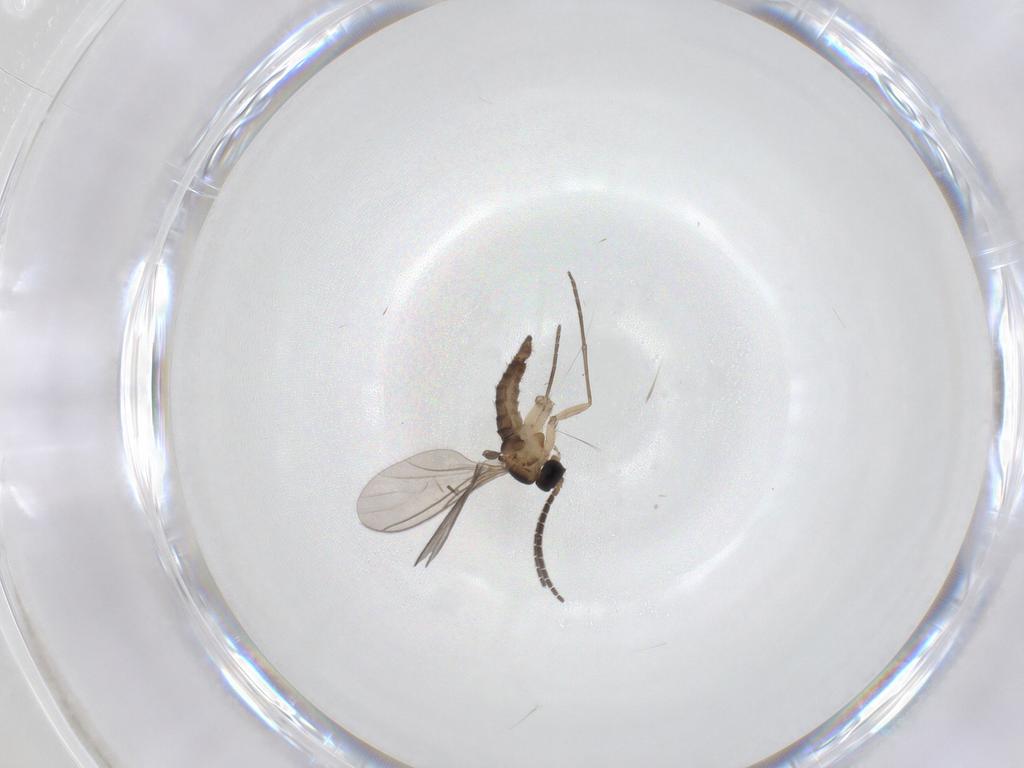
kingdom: Animalia
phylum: Arthropoda
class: Insecta
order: Diptera
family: Sciaridae
